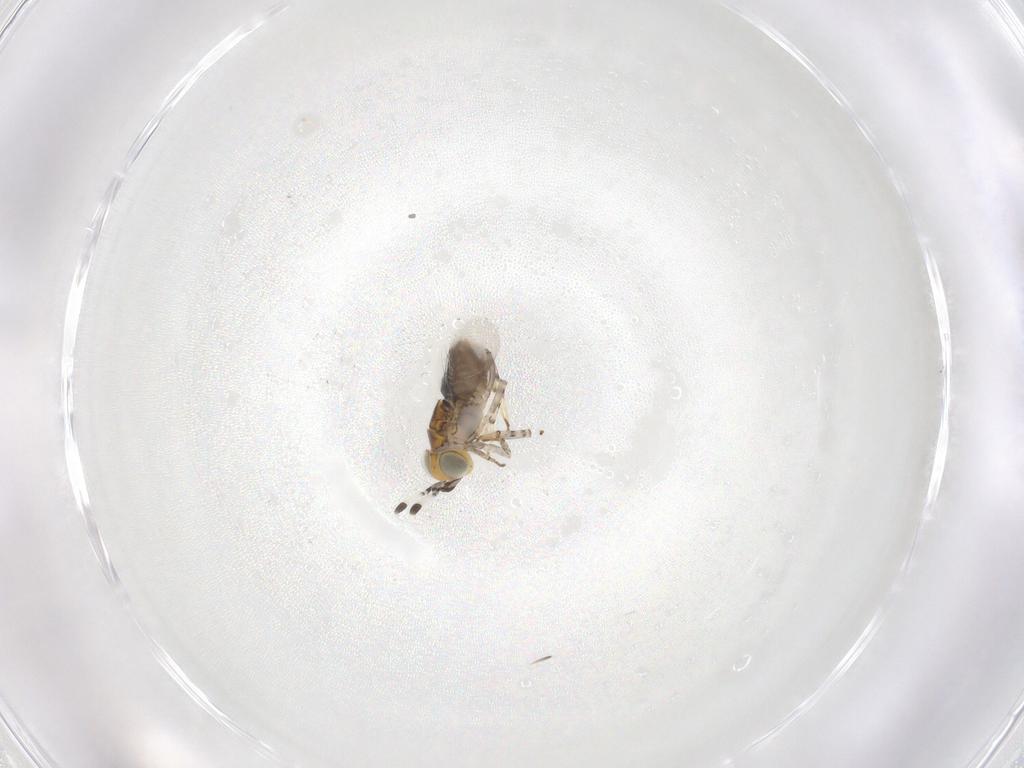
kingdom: Animalia
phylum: Arthropoda
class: Insecta
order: Hymenoptera
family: Encyrtidae
